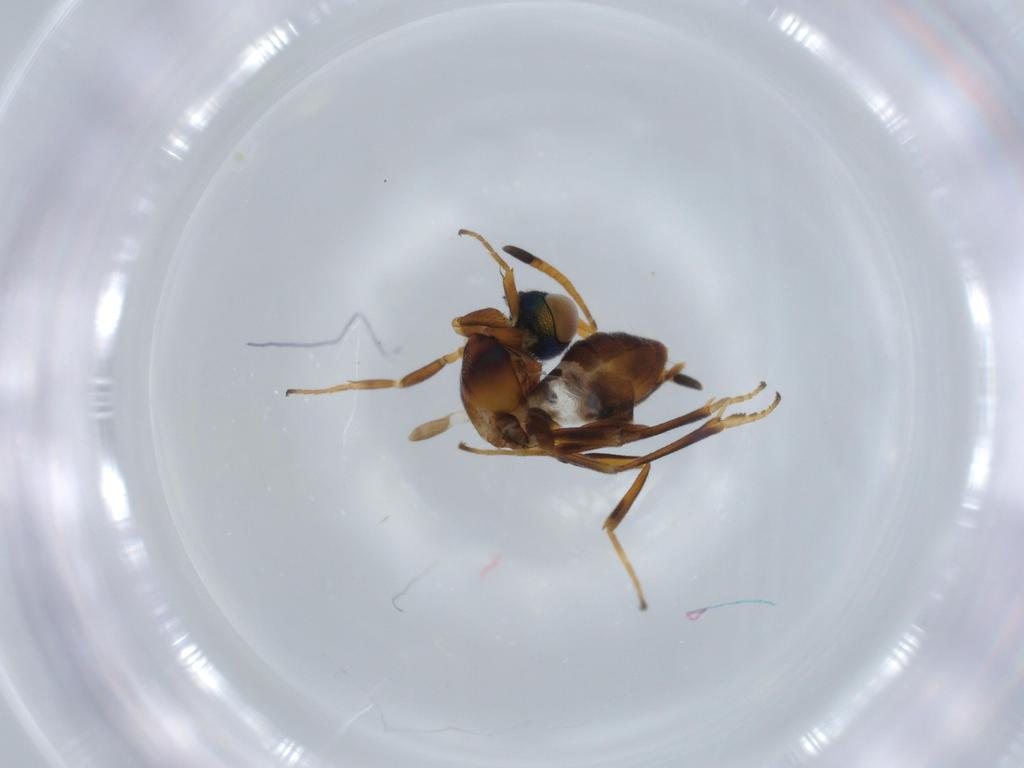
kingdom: Animalia
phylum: Arthropoda
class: Insecta
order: Hymenoptera
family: Eupelmidae
